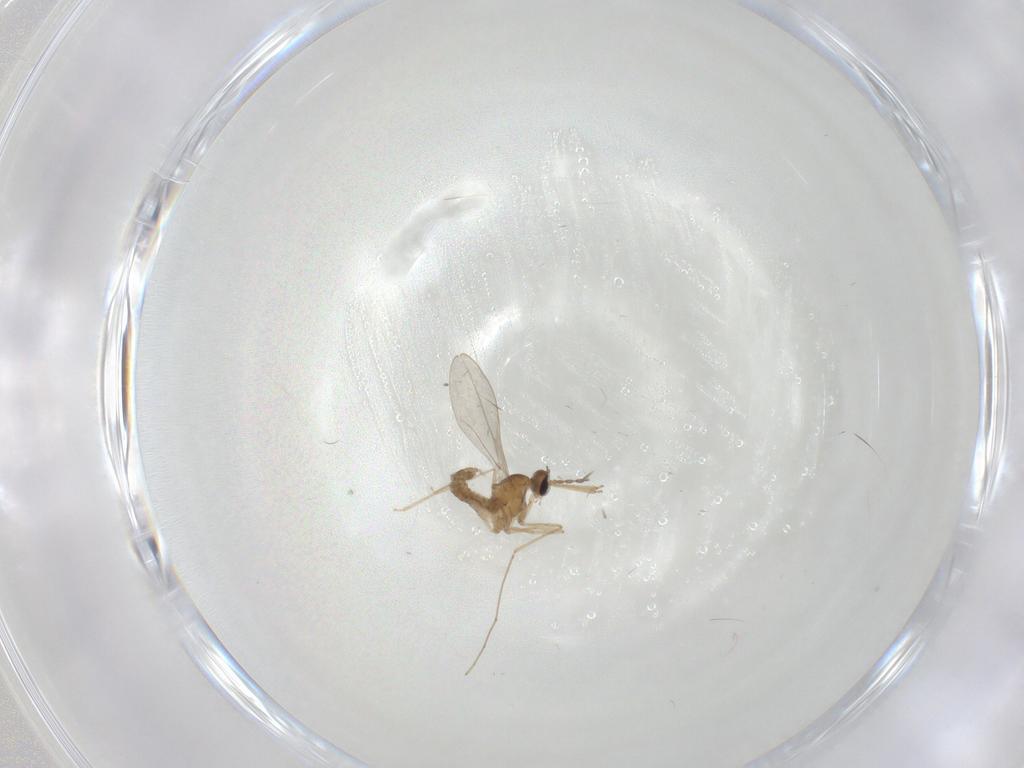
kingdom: Animalia
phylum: Arthropoda
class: Insecta
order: Diptera
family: Cecidomyiidae
